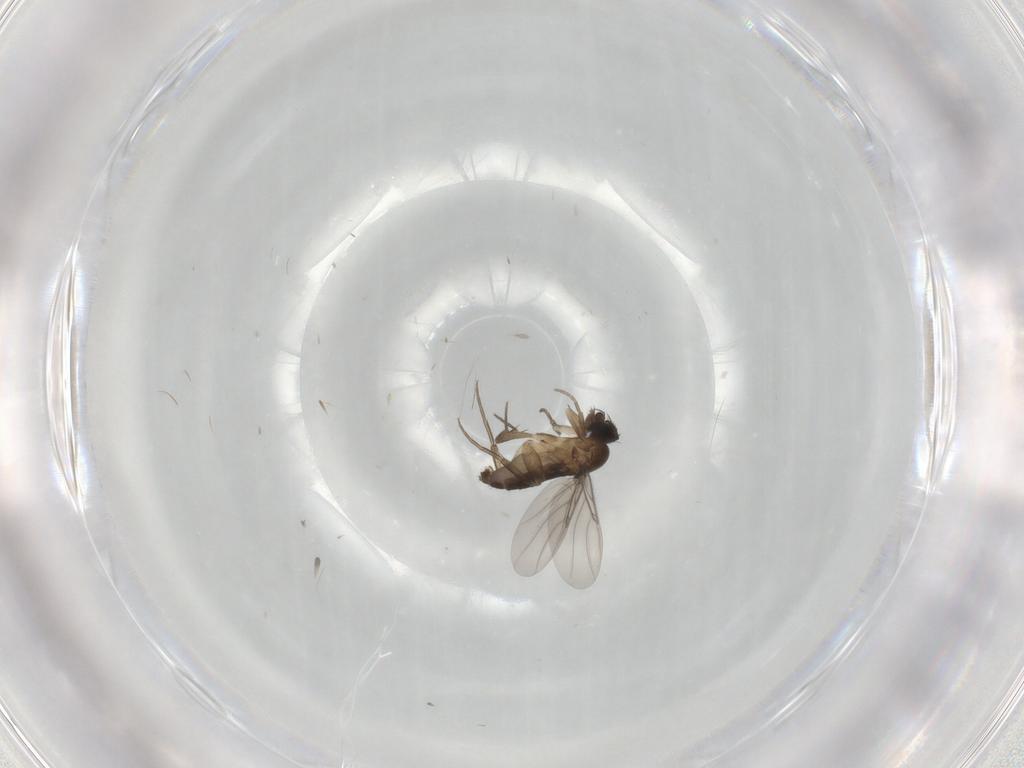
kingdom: Animalia
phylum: Arthropoda
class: Insecta
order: Diptera
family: Phoridae
